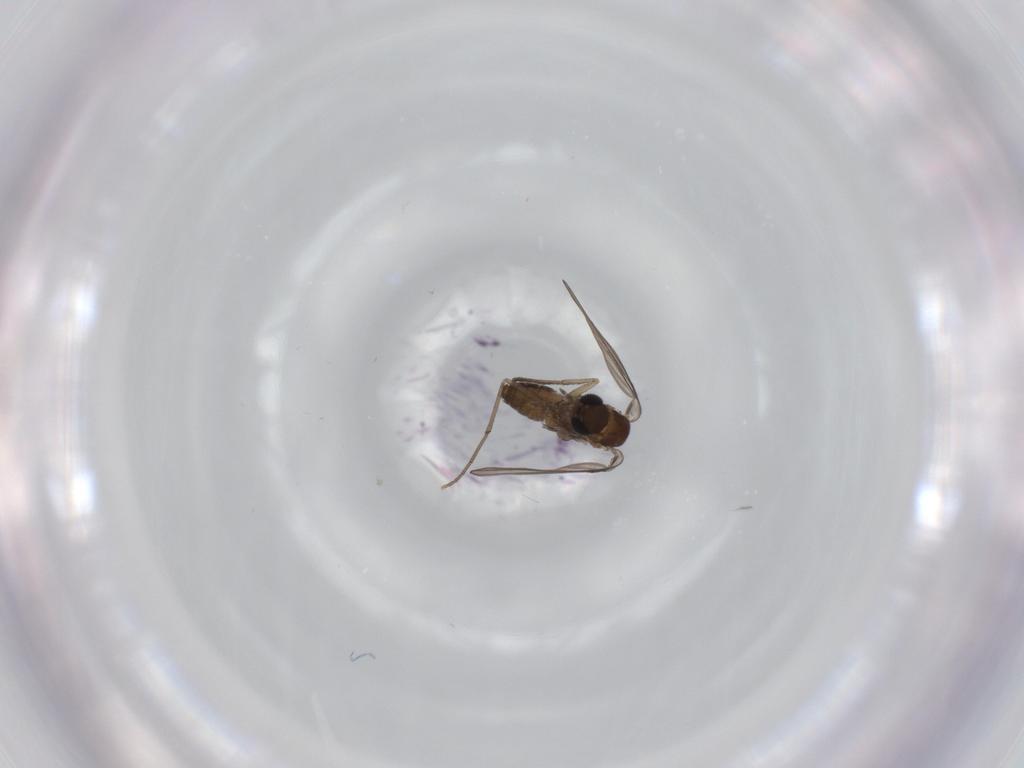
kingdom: Animalia
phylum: Arthropoda
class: Insecta
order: Diptera
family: Psychodidae
